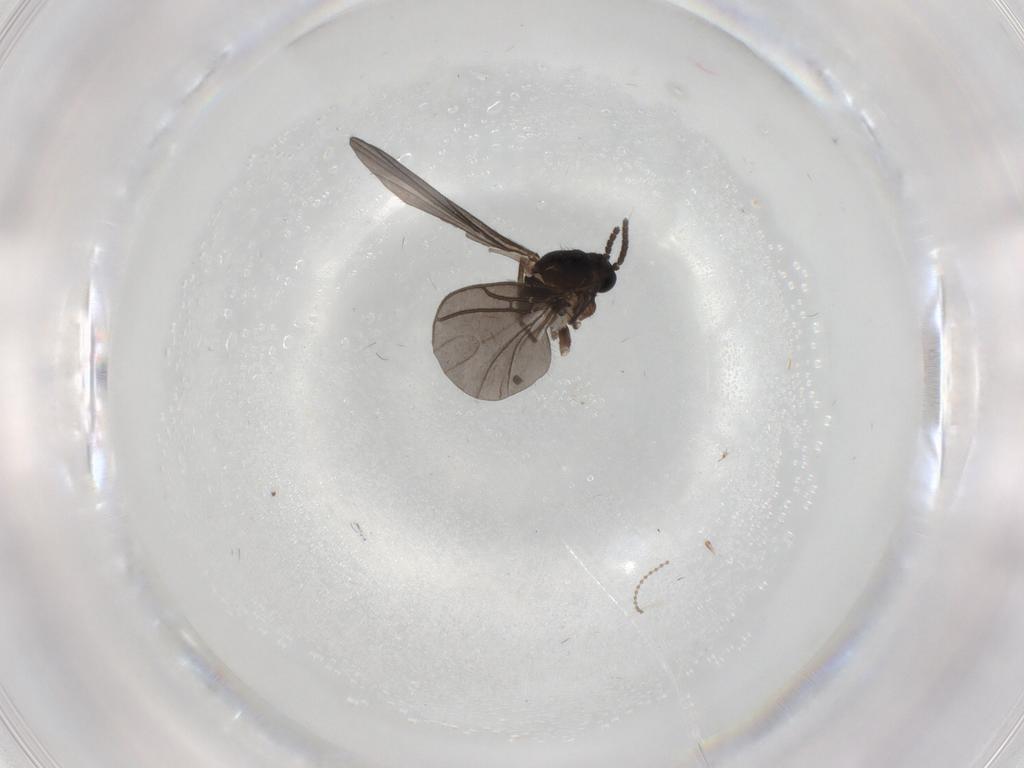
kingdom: Animalia
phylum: Arthropoda
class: Insecta
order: Diptera
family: Sciaridae
